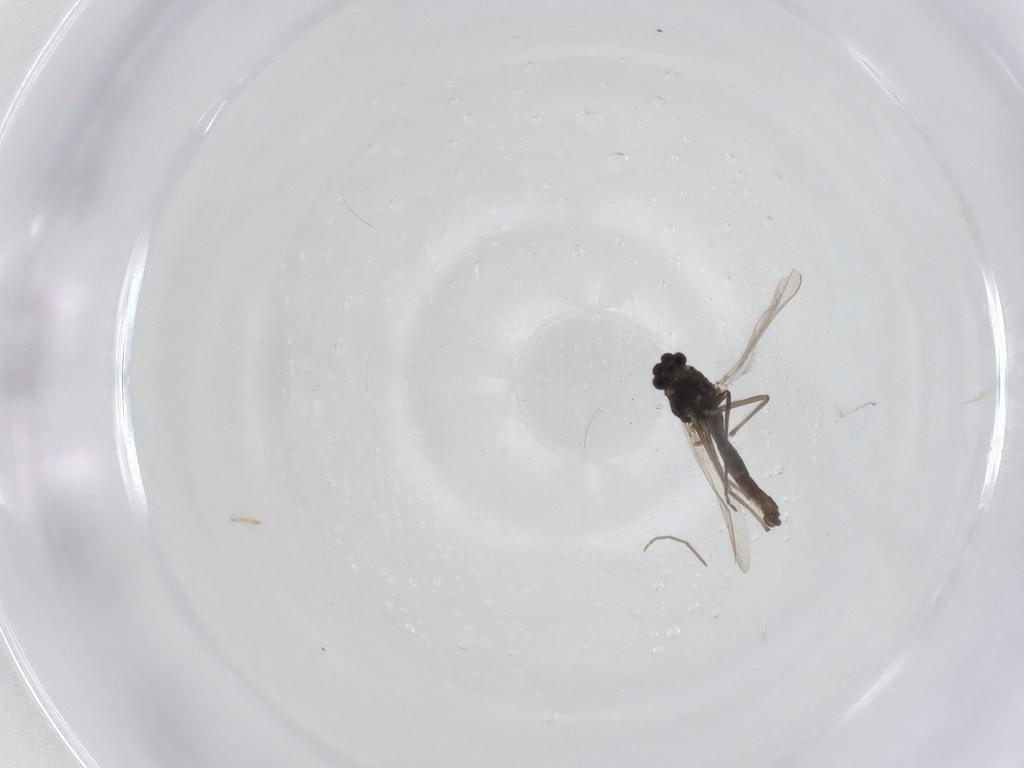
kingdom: Animalia
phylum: Arthropoda
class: Insecta
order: Diptera
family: Chironomidae
